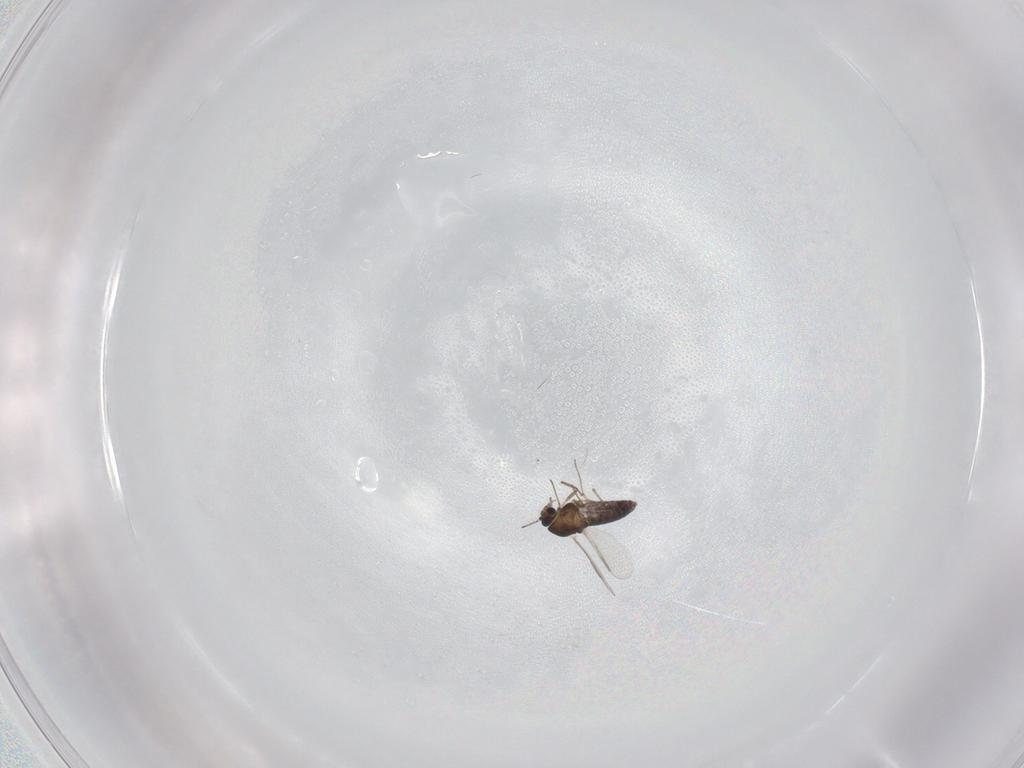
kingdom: Animalia
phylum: Arthropoda
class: Insecta
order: Diptera
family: Chironomidae
